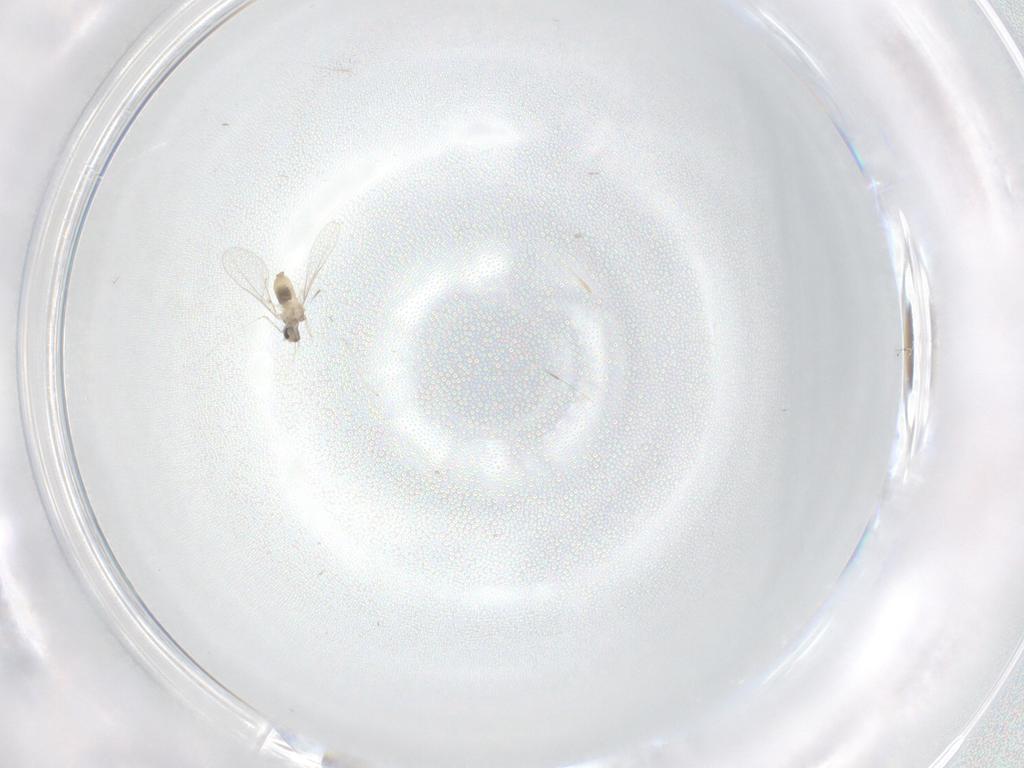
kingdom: Animalia
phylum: Arthropoda
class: Insecta
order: Diptera
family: Cecidomyiidae
